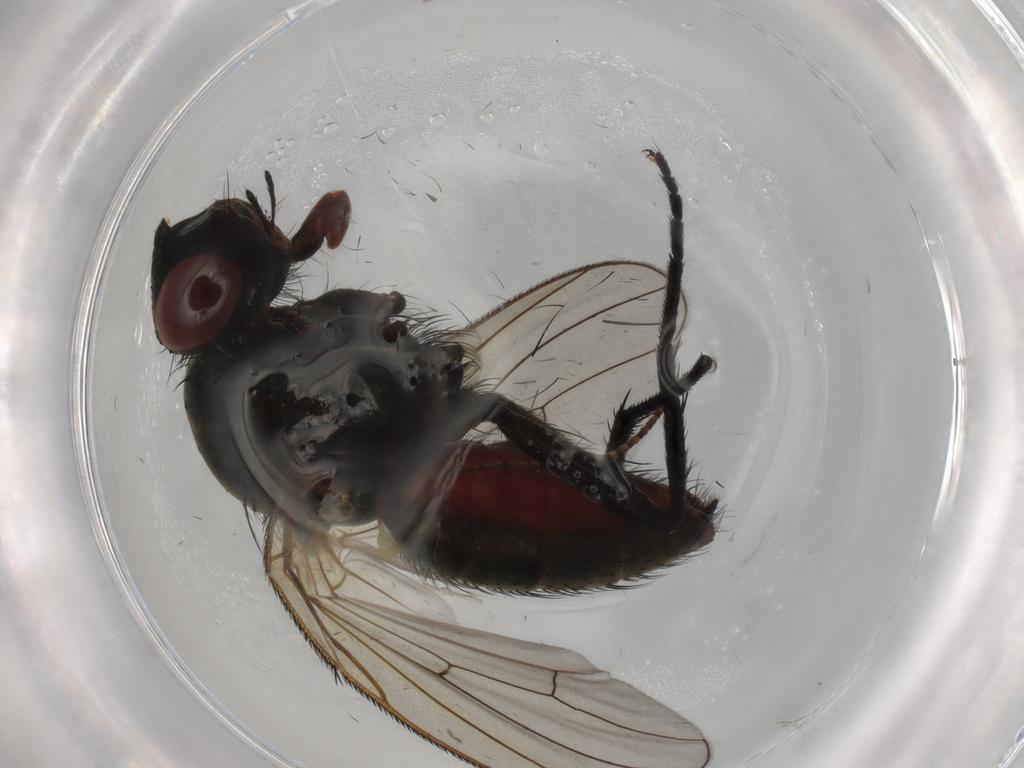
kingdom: Animalia
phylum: Arthropoda
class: Insecta
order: Diptera
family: Anthomyiidae
